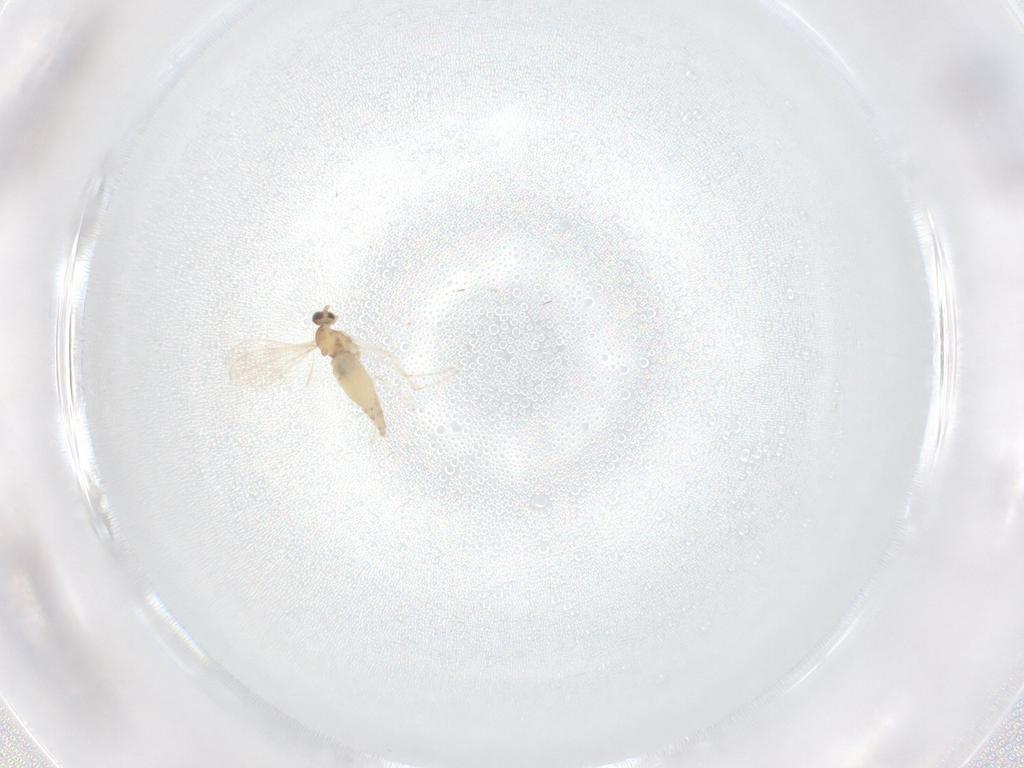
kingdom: Animalia
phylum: Arthropoda
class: Insecta
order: Diptera
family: Cecidomyiidae
